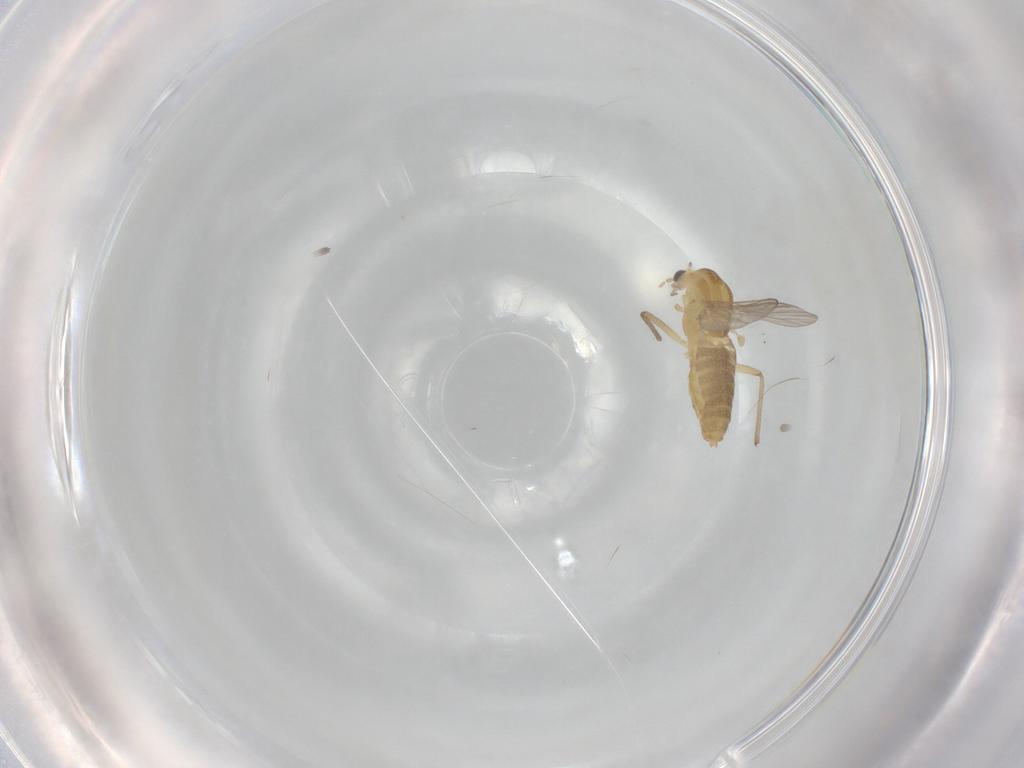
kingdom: Animalia
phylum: Arthropoda
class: Insecta
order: Diptera
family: Chironomidae
